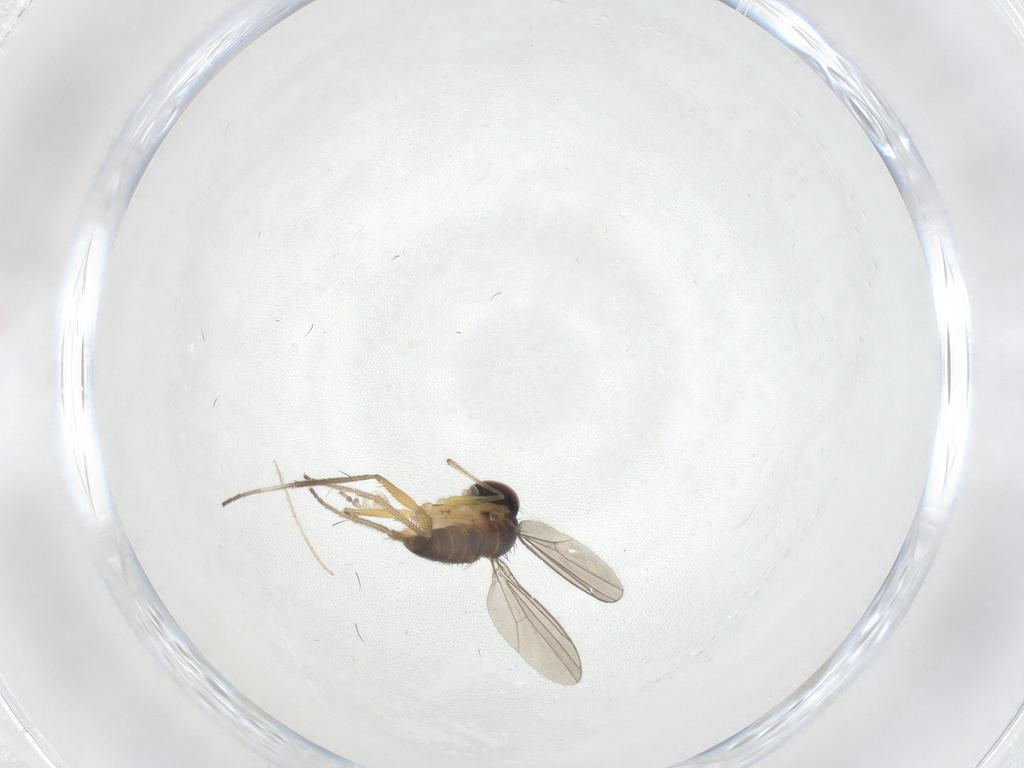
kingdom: Animalia
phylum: Arthropoda
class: Insecta
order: Diptera
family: Dolichopodidae
